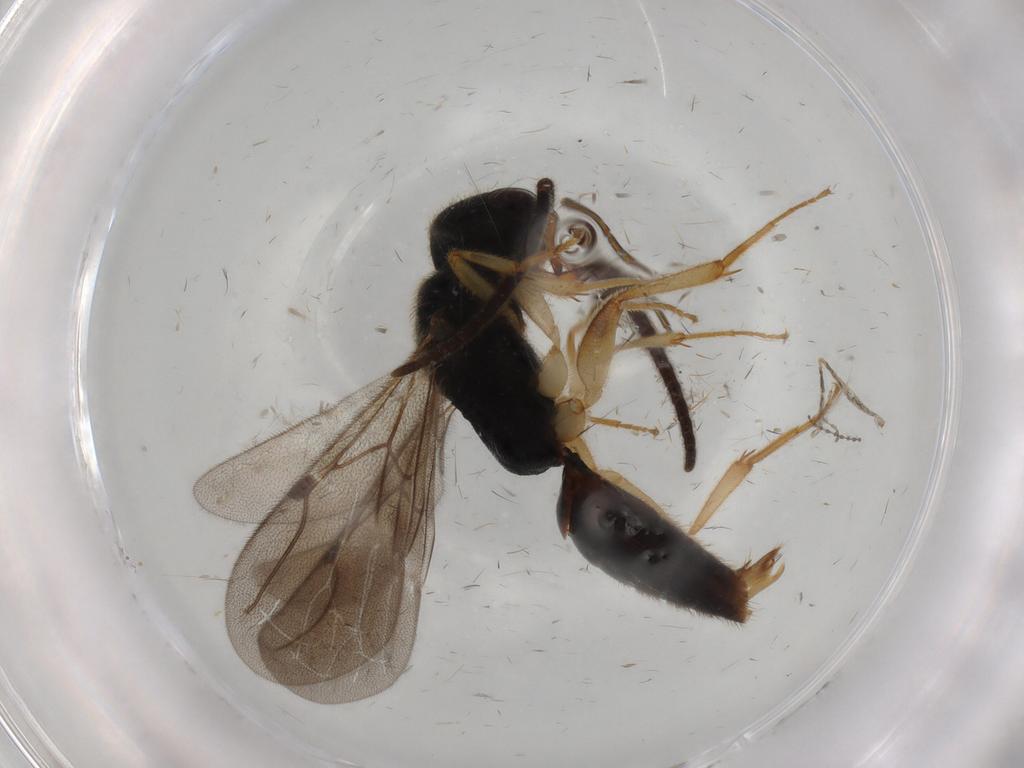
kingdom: Animalia
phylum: Arthropoda
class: Insecta
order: Hymenoptera
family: Bethylidae
